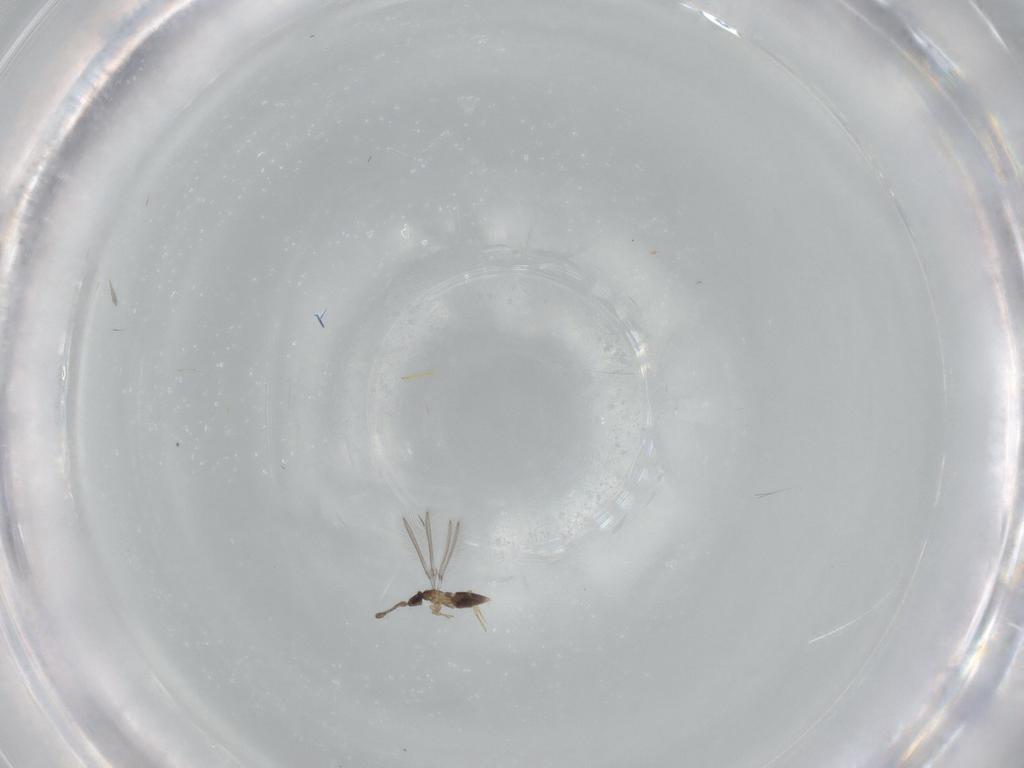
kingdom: Animalia
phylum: Arthropoda
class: Insecta
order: Hymenoptera
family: Mymaridae
